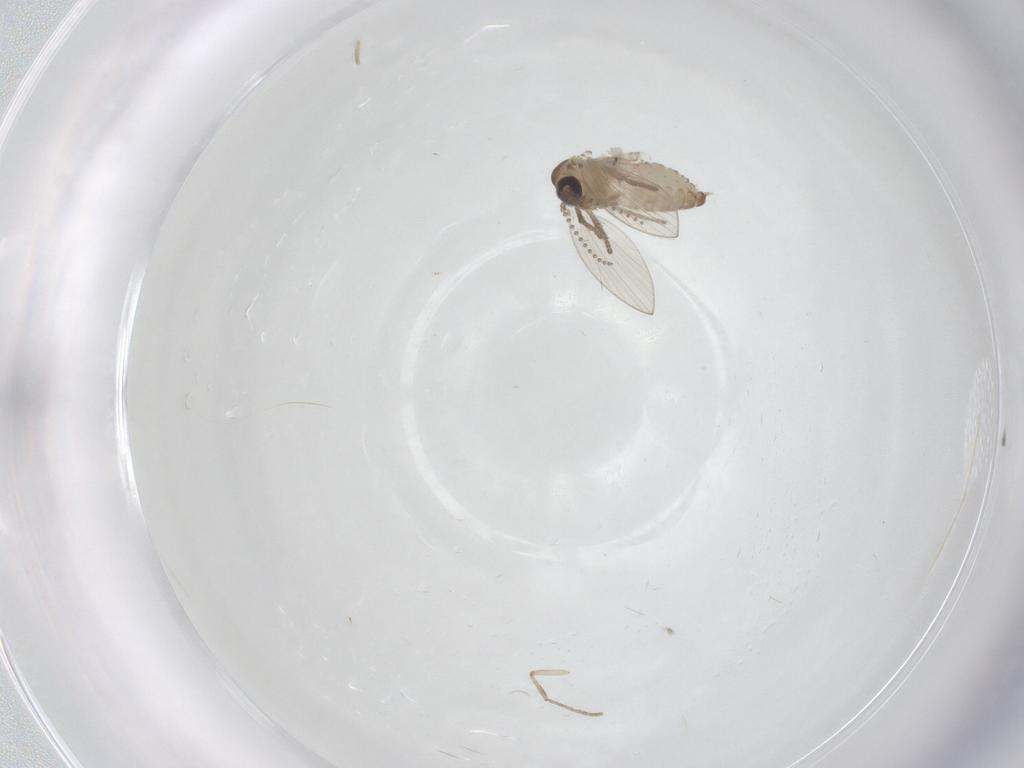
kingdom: Animalia
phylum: Arthropoda
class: Insecta
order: Diptera
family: Psychodidae
